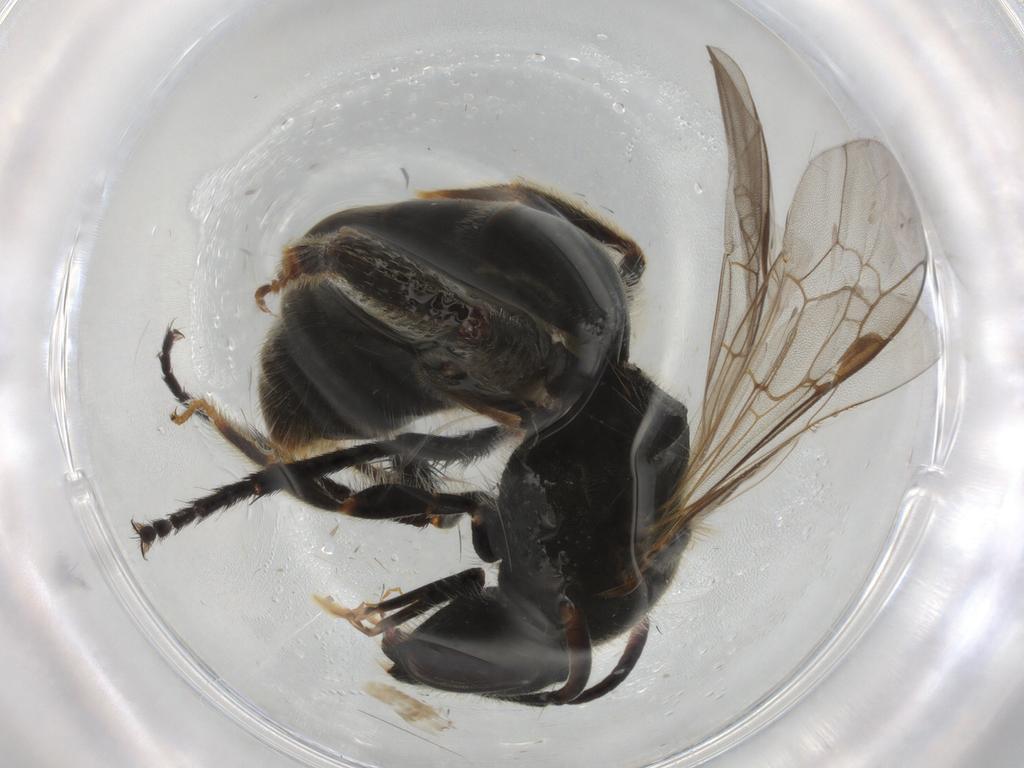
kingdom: Animalia
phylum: Arthropoda
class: Insecta
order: Hymenoptera
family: Halictidae
